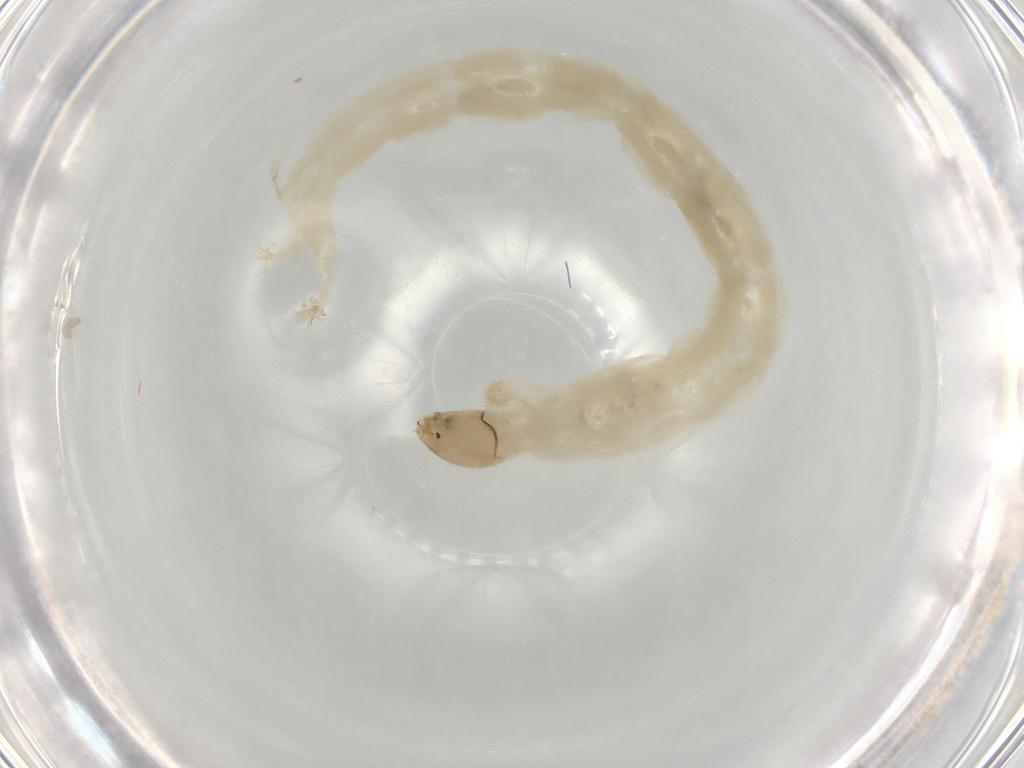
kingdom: Animalia
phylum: Arthropoda
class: Insecta
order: Diptera
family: Chironomidae
